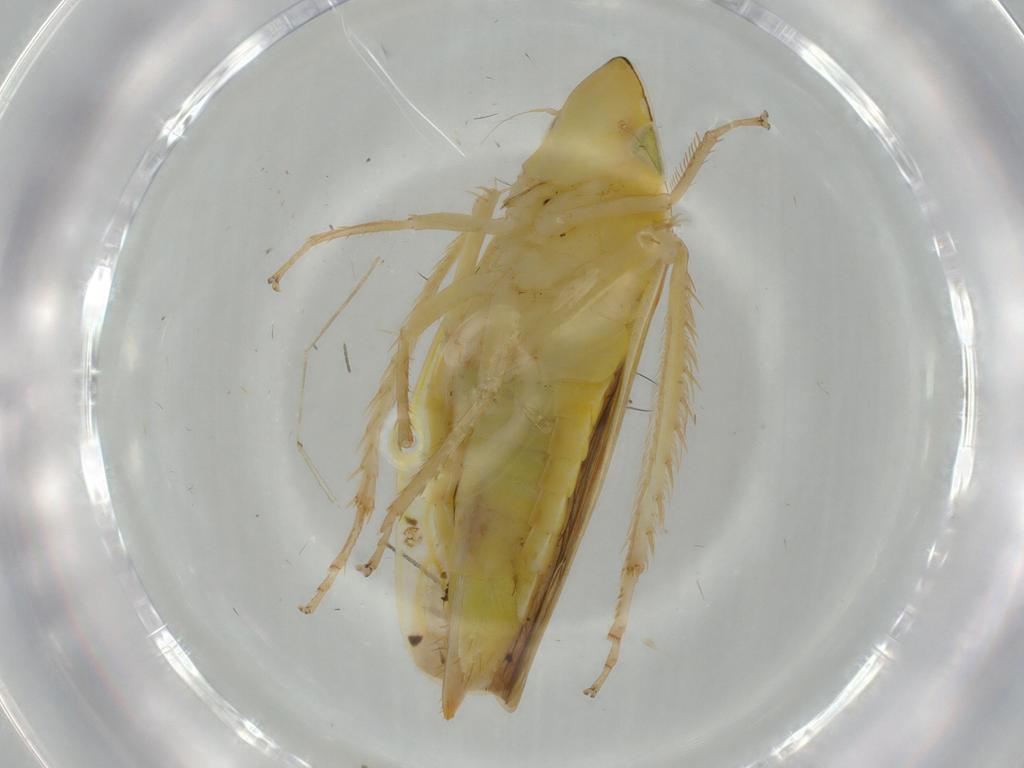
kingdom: Animalia
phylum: Arthropoda
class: Insecta
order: Hemiptera
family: Cicadellidae
